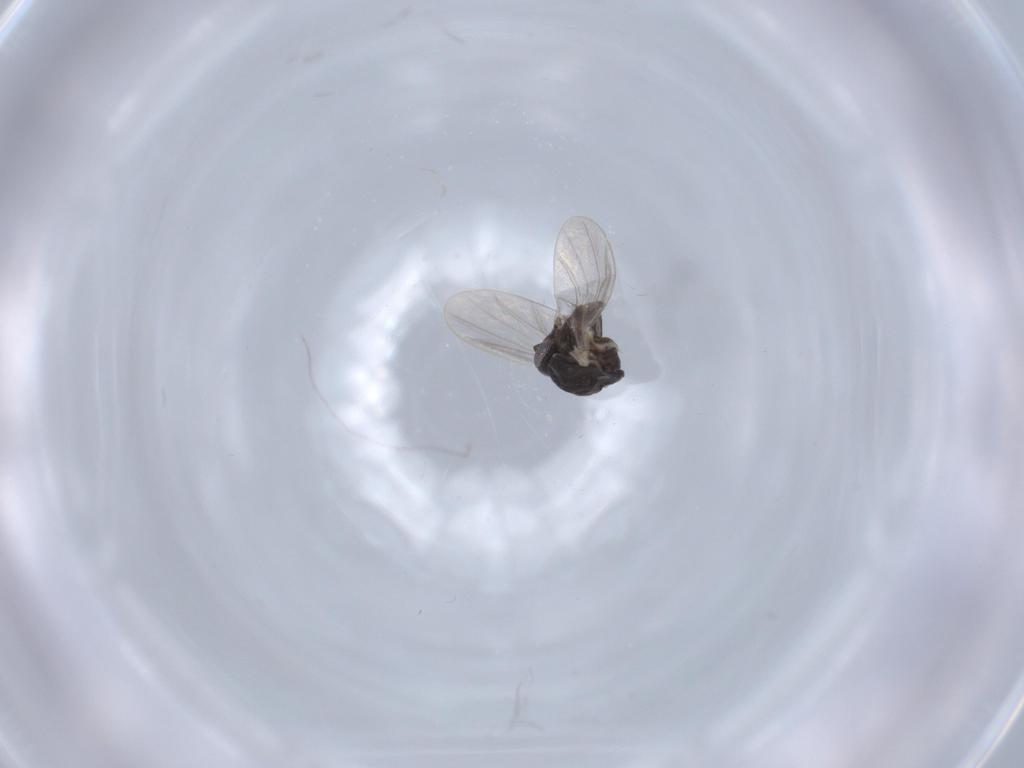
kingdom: Animalia
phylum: Arthropoda
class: Insecta
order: Diptera
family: Ceratopogonidae
